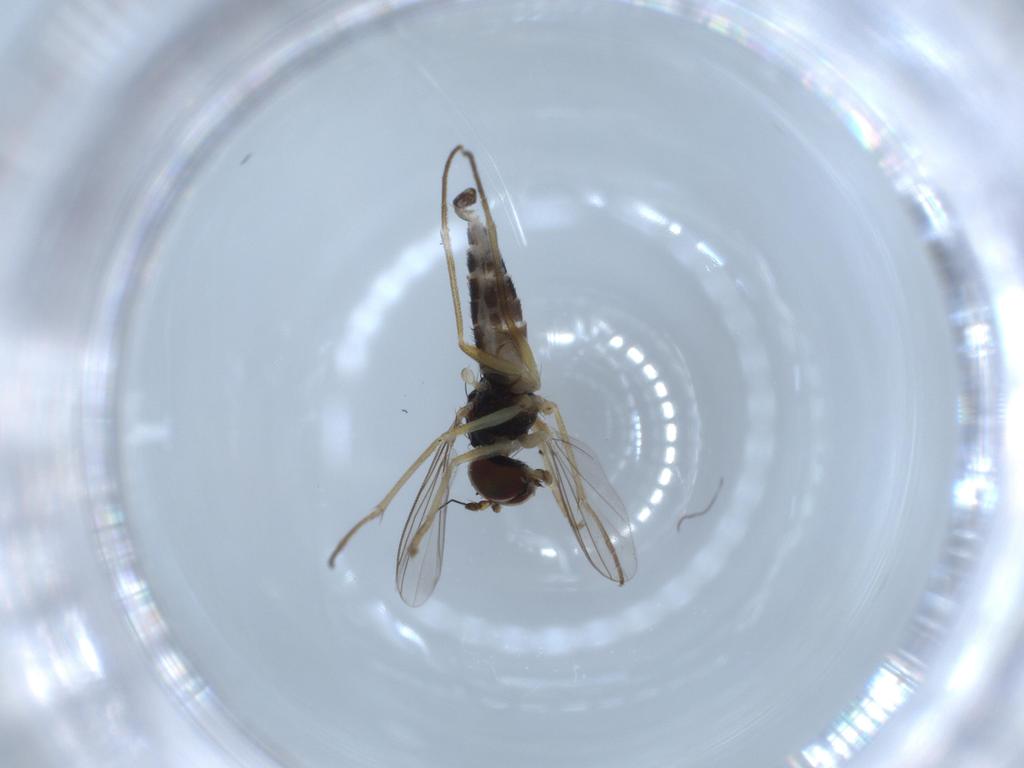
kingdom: Animalia
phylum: Arthropoda
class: Insecta
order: Diptera
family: Dolichopodidae
